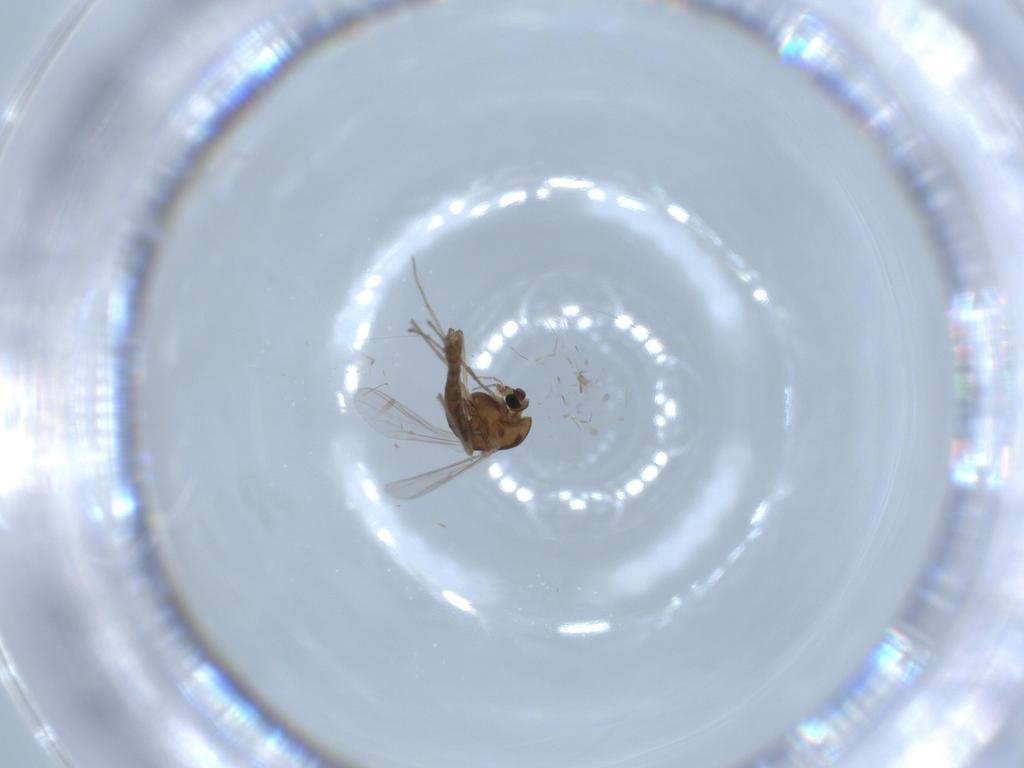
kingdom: Animalia
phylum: Arthropoda
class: Insecta
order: Diptera
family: Chironomidae
